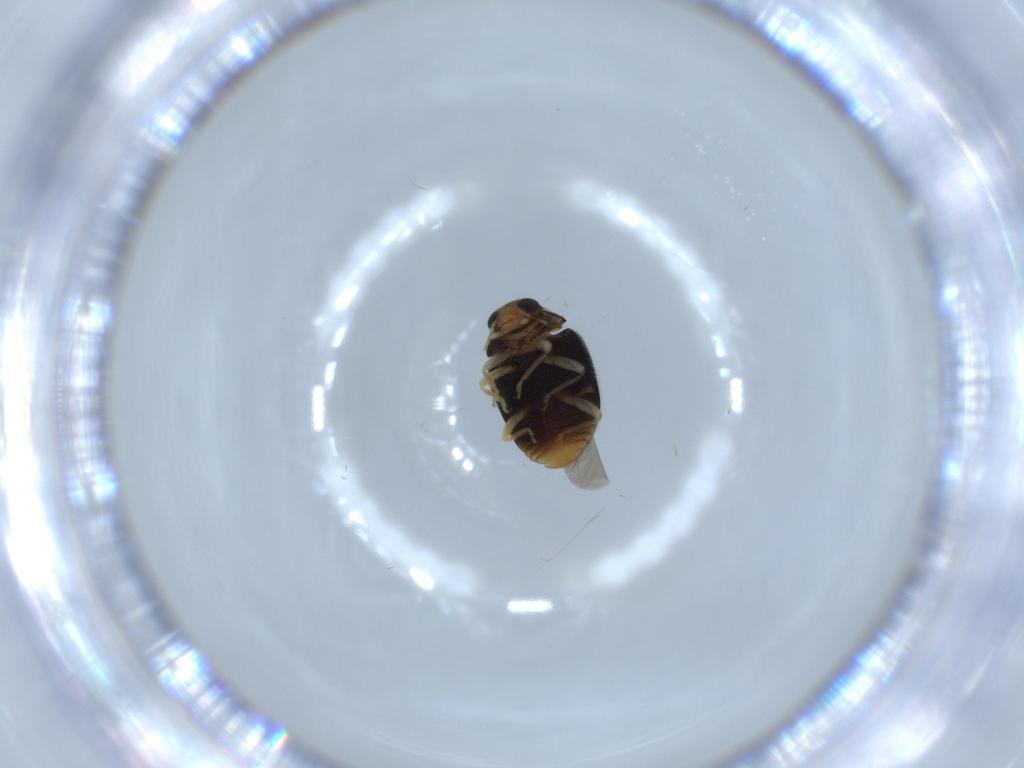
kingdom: Animalia
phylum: Arthropoda
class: Insecta
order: Coleoptera
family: Coccinellidae
